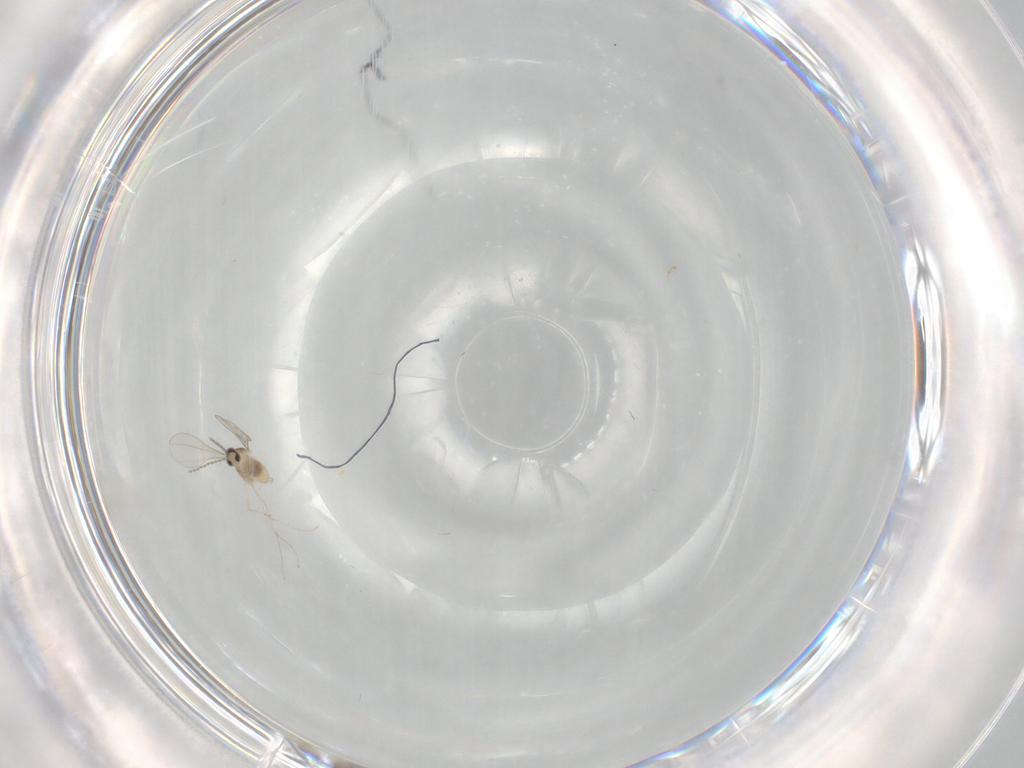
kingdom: Animalia
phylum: Arthropoda
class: Insecta
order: Diptera
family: Cecidomyiidae
